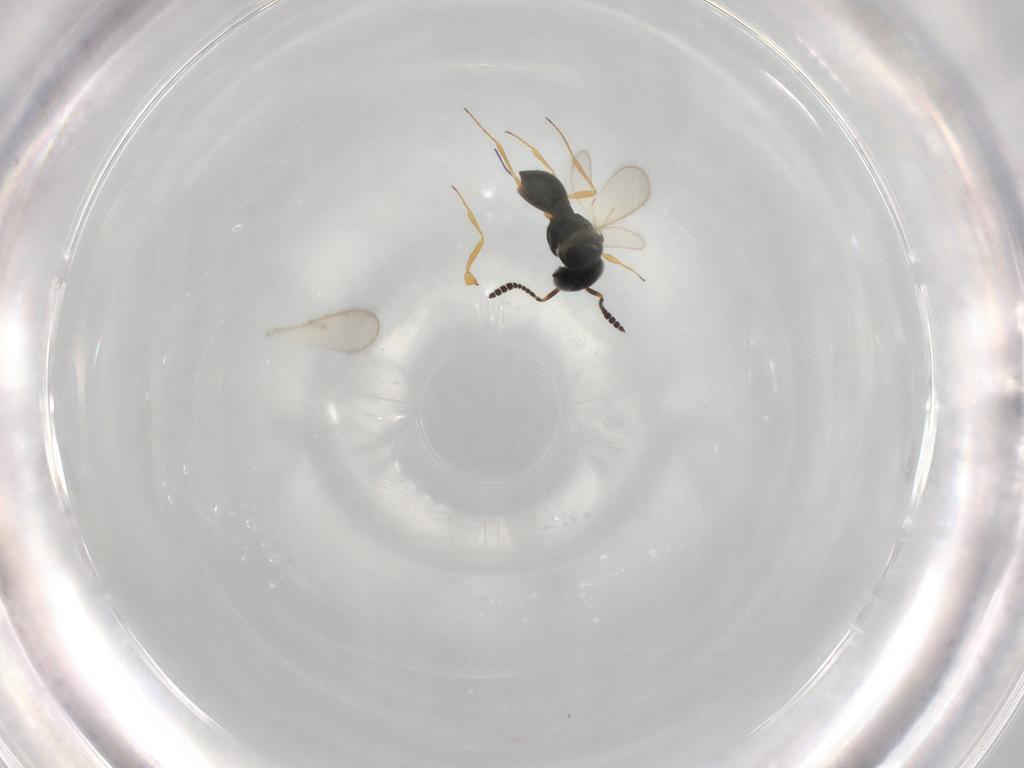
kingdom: Animalia
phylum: Arthropoda
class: Insecta
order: Hymenoptera
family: Scelionidae
